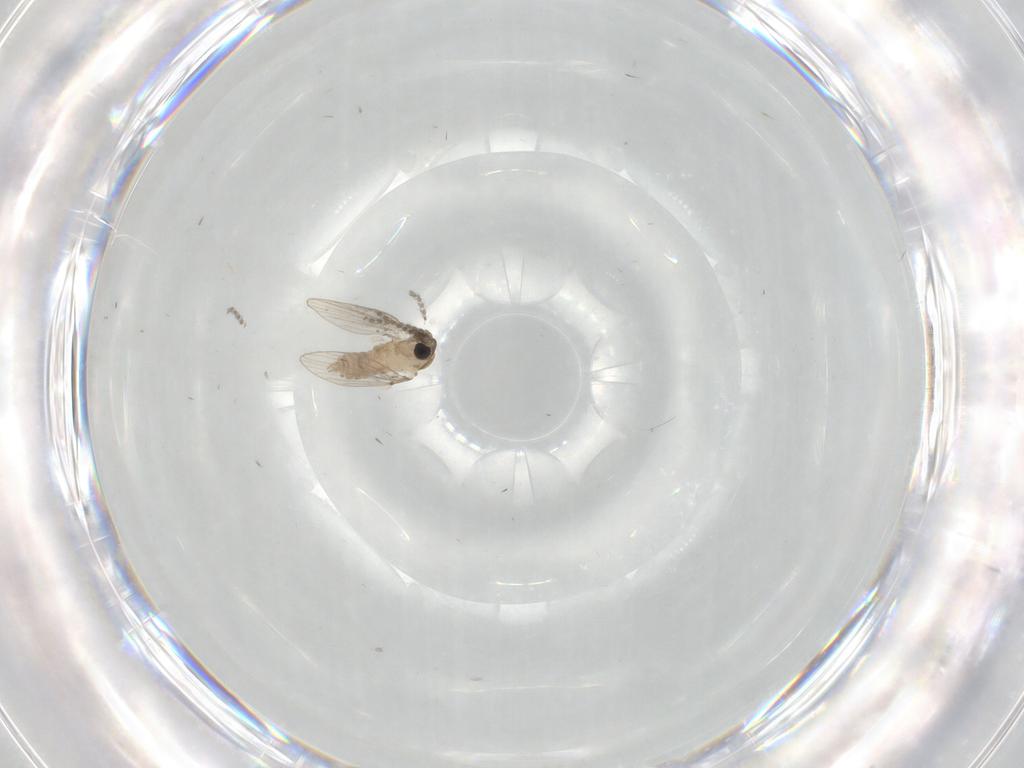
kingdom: Animalia
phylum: Arthropoda
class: Insecta
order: Diptera
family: Psychodidae
